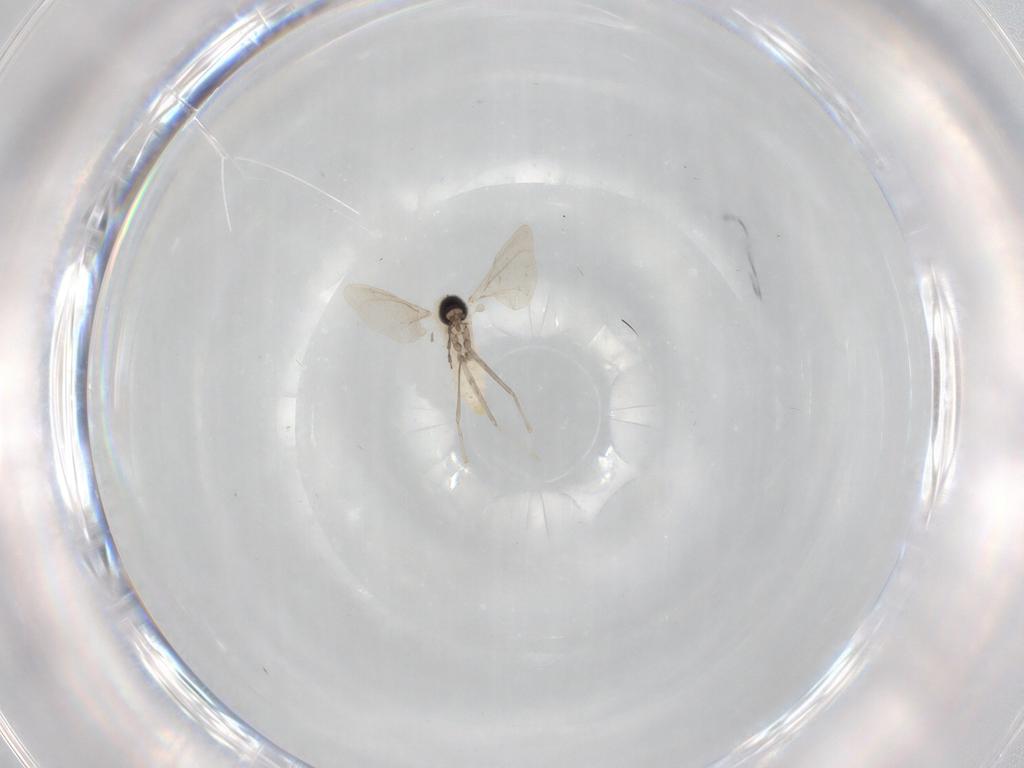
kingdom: Animalia
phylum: Arthropoda
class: Insecta
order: Diptera
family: Cecidomyiidae
